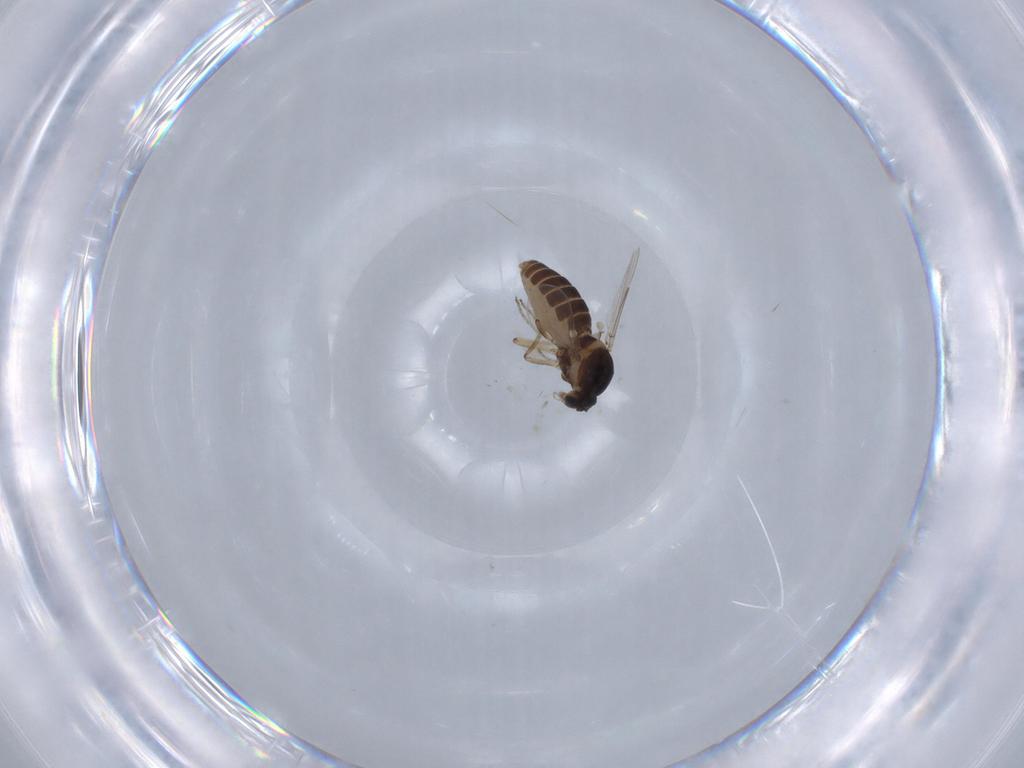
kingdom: Animalia
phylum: Arthropoda
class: Insecta
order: Diptera
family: Ceratopogonidae
